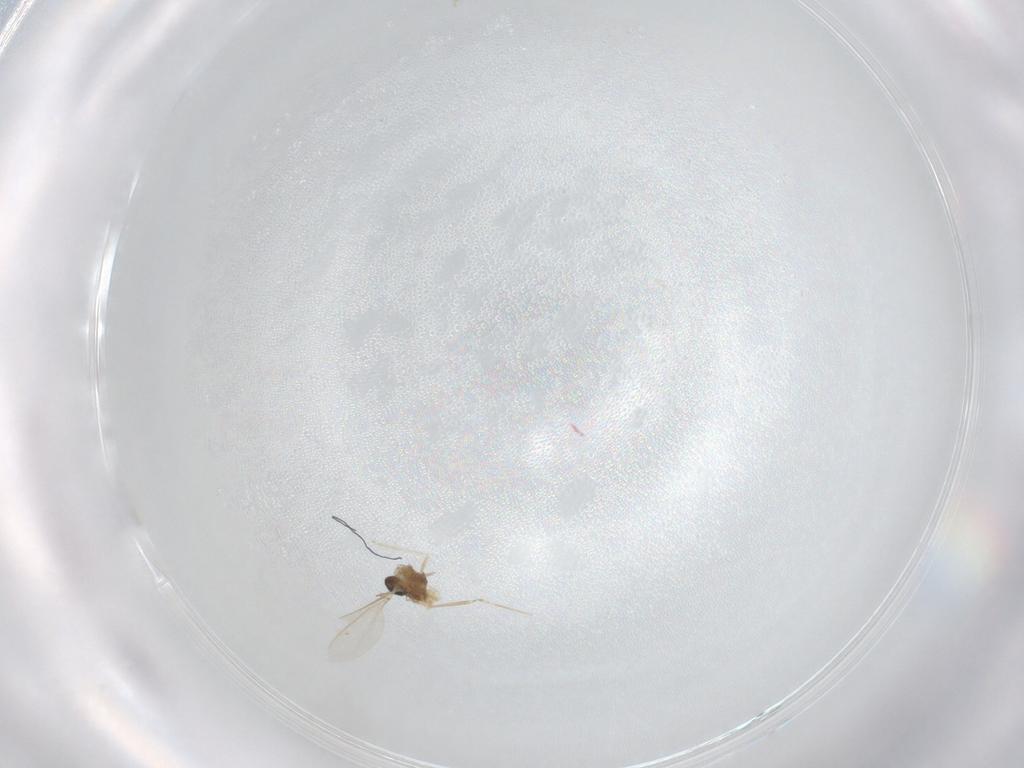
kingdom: Animalia
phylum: Arthropoda
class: Insecta
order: Diptera
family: Cecidomyiidae
